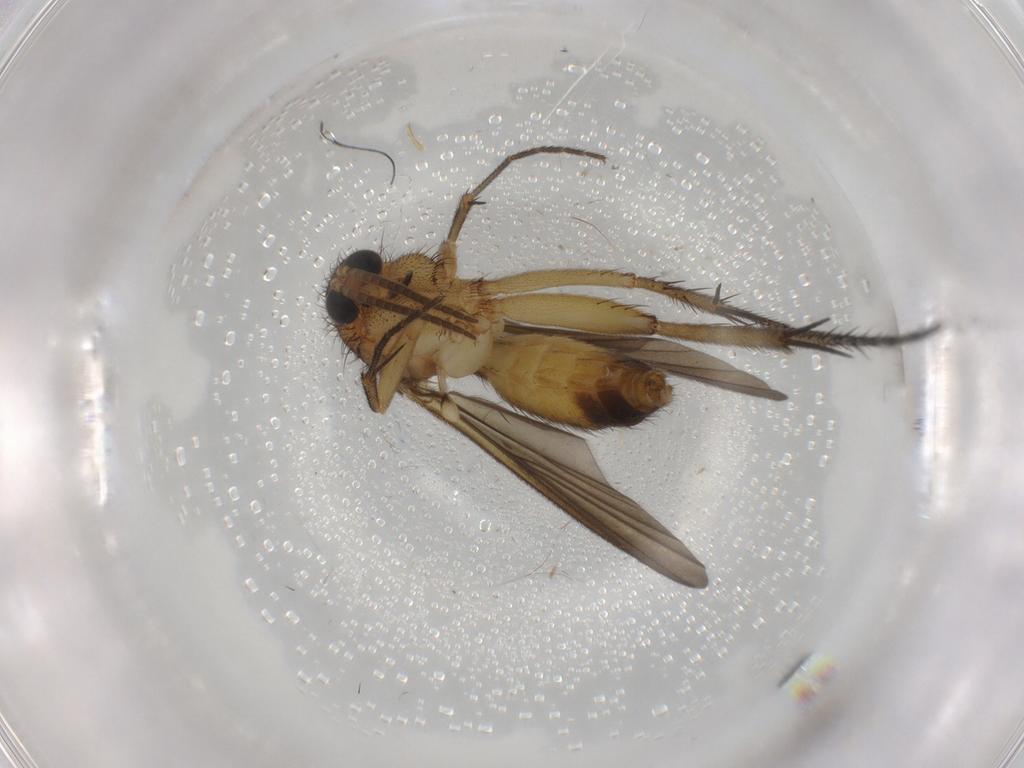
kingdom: Animalia
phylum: Arthropoda
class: Insecta
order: Diptera
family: Mycetophilidae
